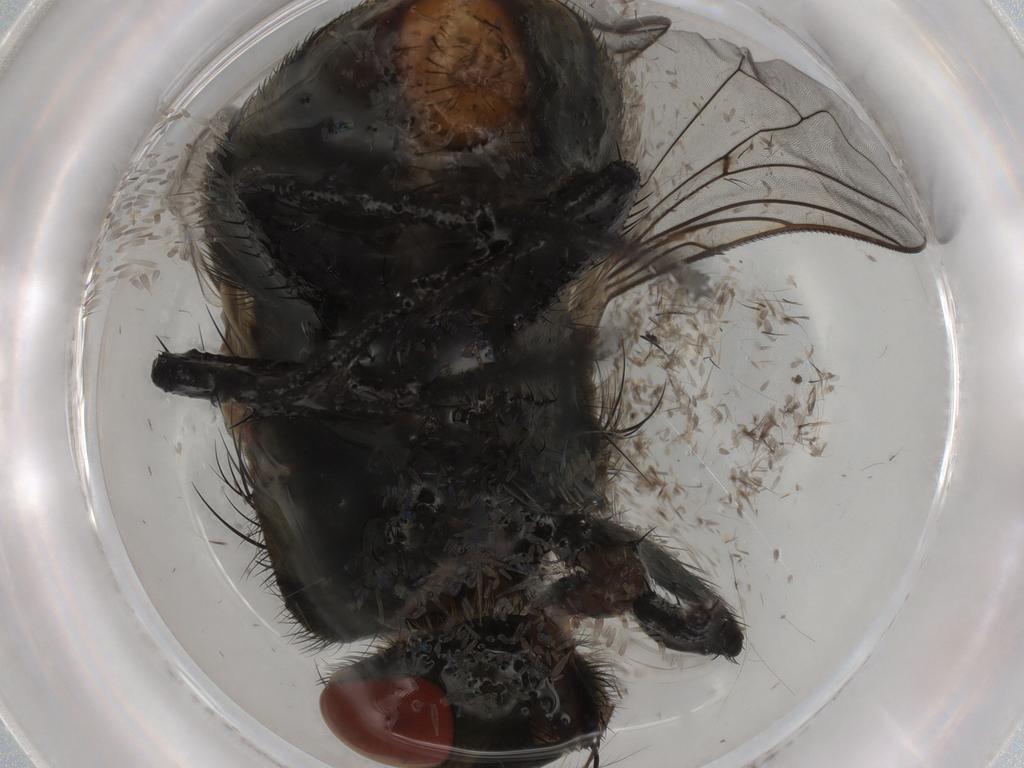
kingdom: Animalia
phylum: Arthropoda
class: Insecta
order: Diptera
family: Sarcophagidae
